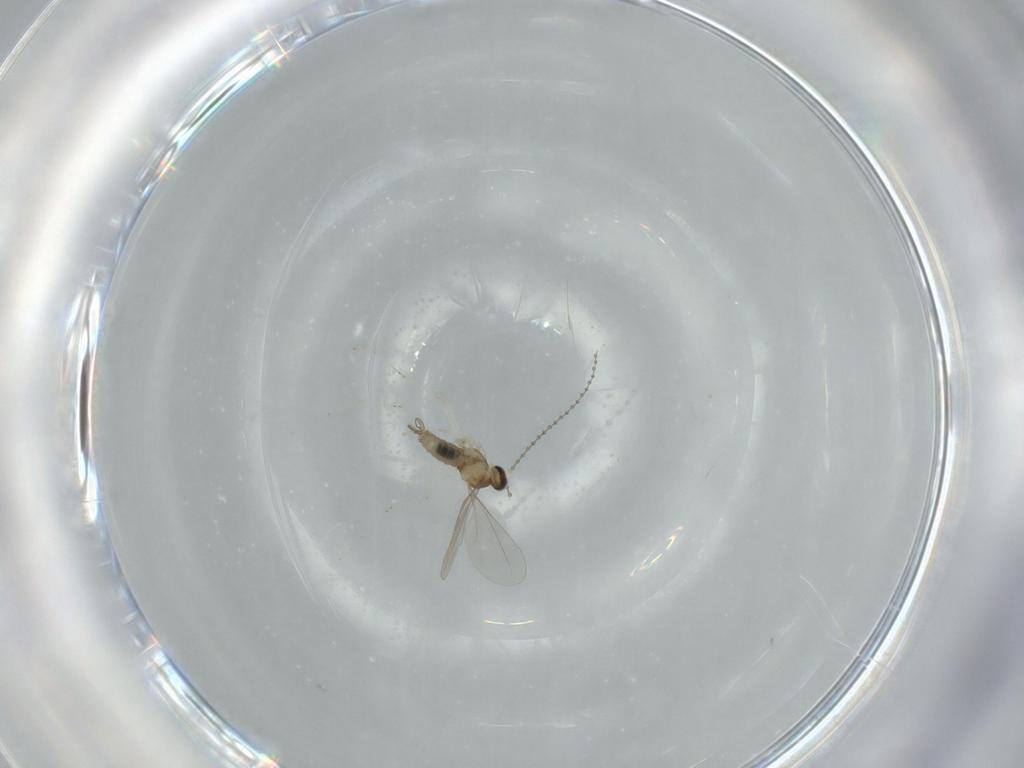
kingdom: Animalia
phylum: Arthropoda
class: Insecta
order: Diptera
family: Cecidomyiidae
